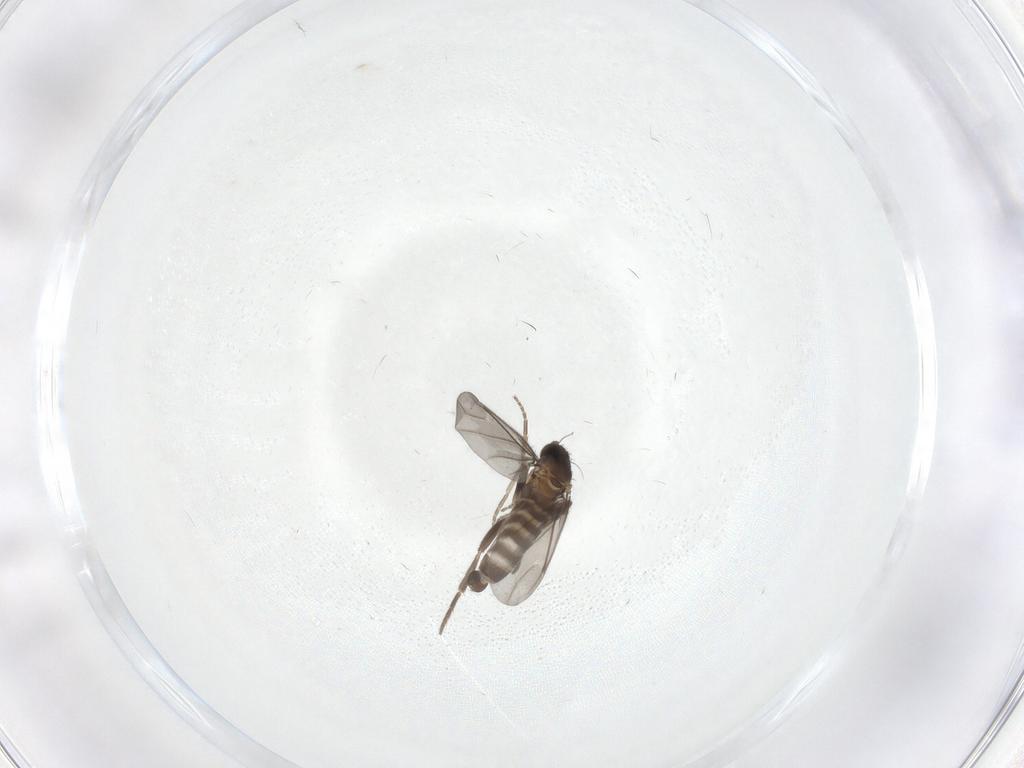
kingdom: Animalia
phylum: Arthropoda
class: Insecta
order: Diptera
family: Phoridae
